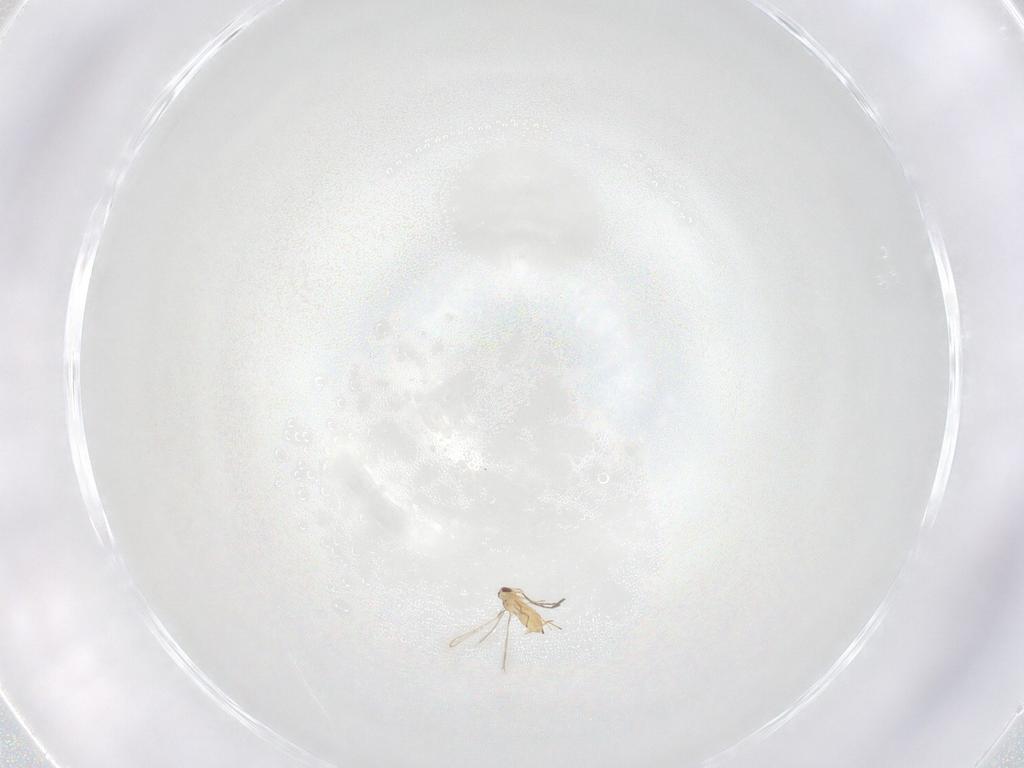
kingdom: Animalia
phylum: Arthropoda
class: Insecta
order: Hymenoptera
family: Mymaridae
